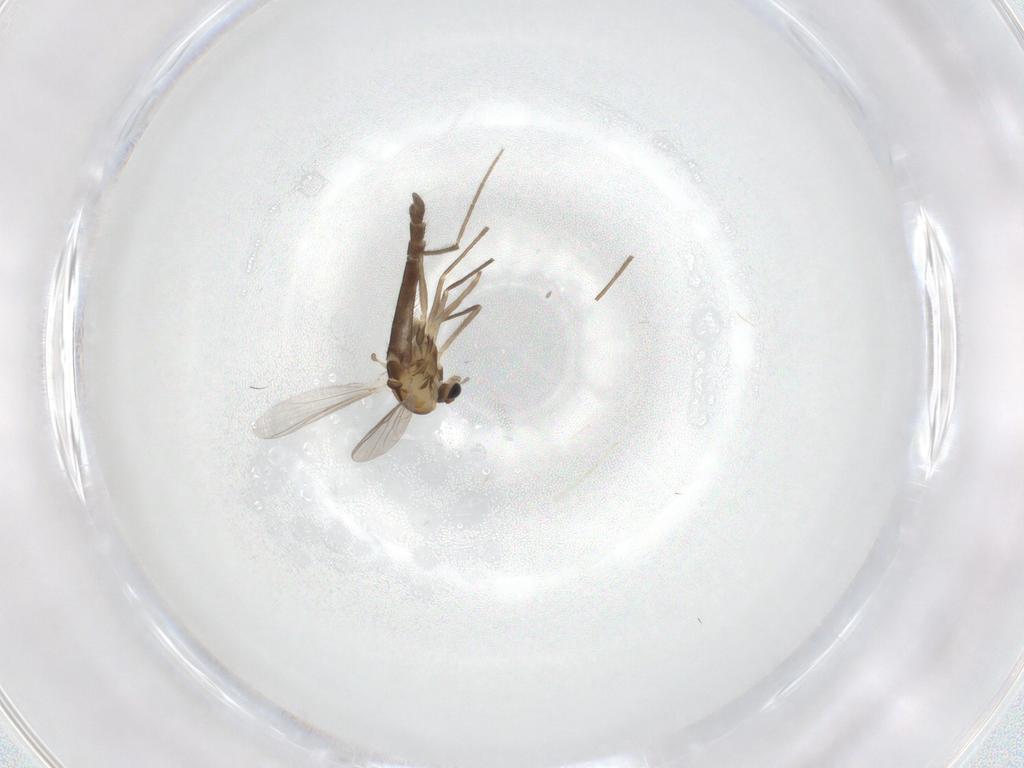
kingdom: Animalia
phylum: Arthropoda
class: Insecta
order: Diptera
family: Chironomidae
